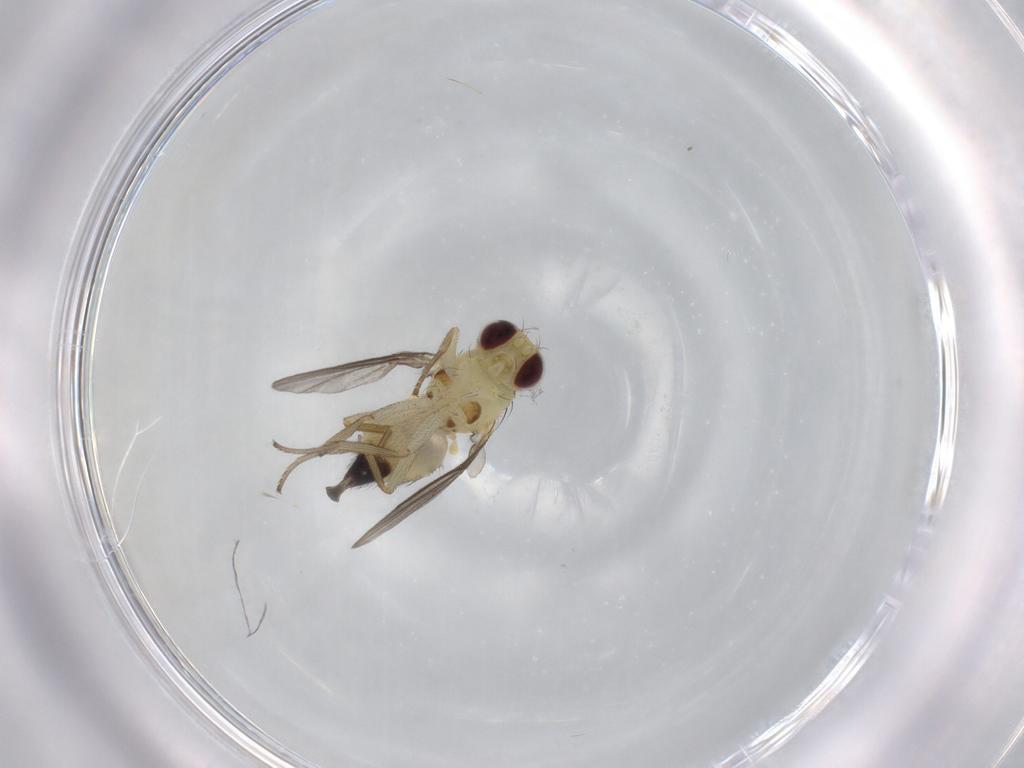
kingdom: Animalia
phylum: Arthropoda
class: Insecta
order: Diptera
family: Agromyzidae
